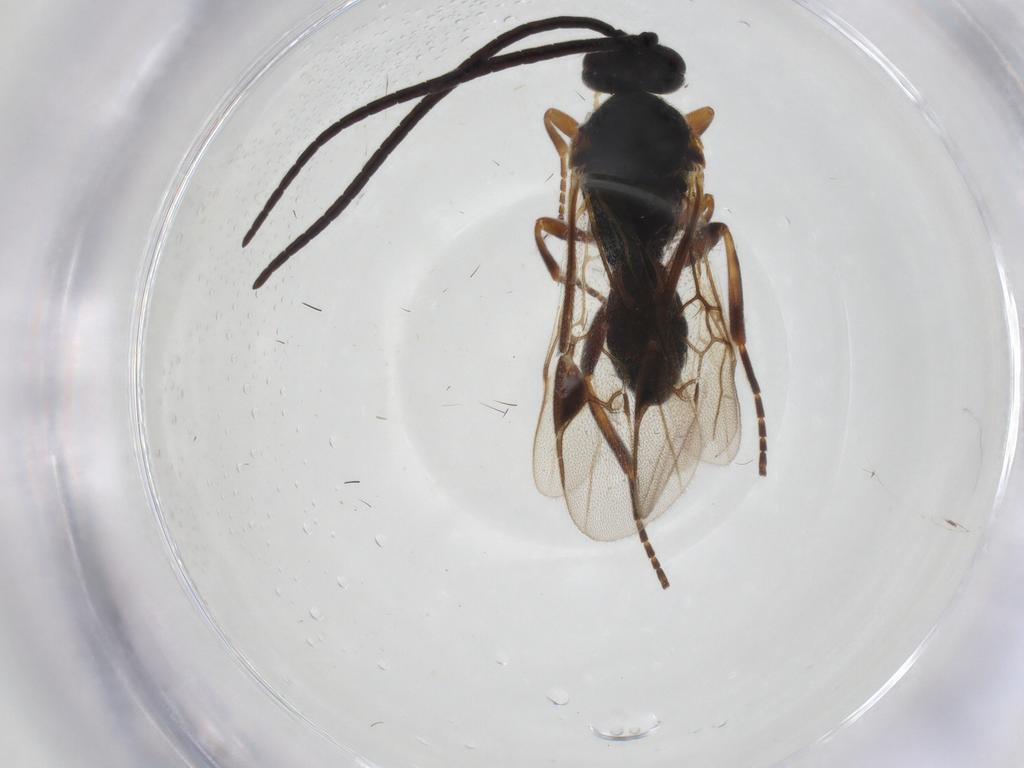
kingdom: Animalia
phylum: Arthropoda
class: Insecta
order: Hymenoptera
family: Braconidae
